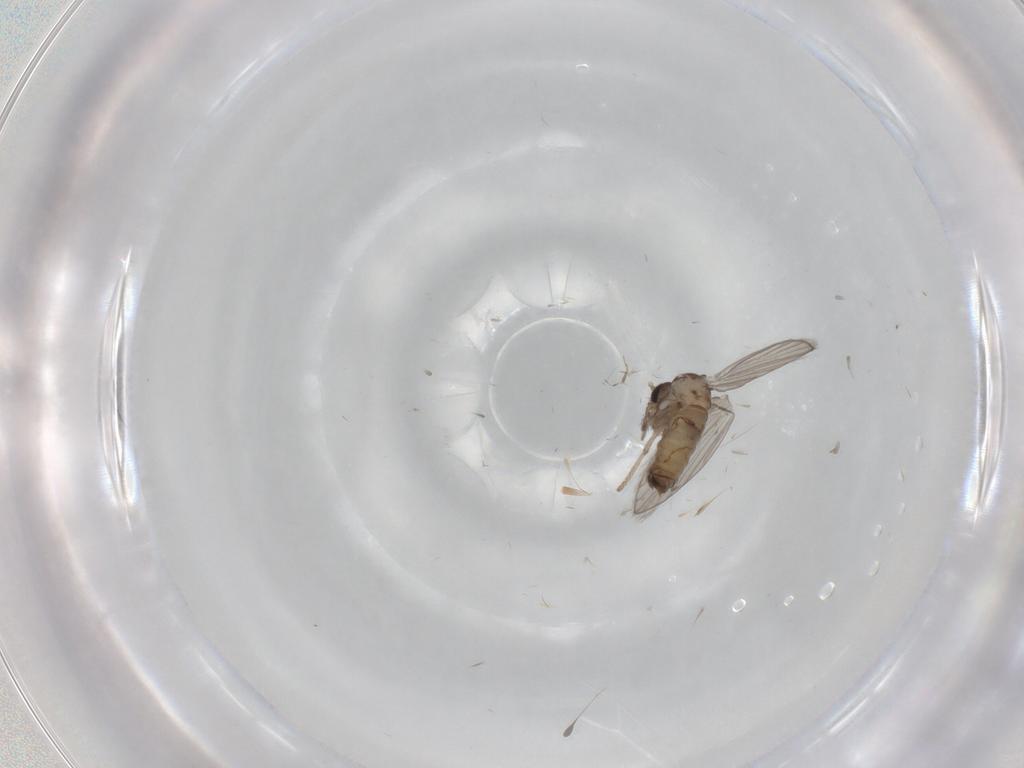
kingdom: Animalia
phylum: Arthropoda
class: Insecta
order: Diptera
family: Psychodidae
